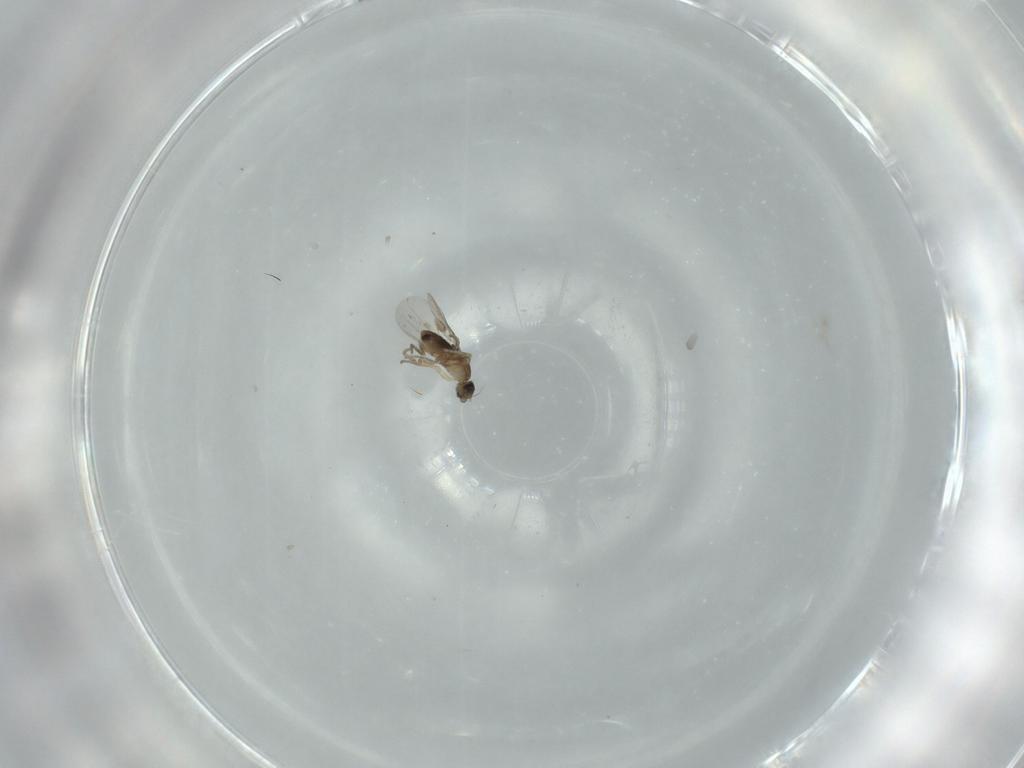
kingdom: Animalia
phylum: Arthropoda
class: Insecta
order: Diptera
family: Phoridae
